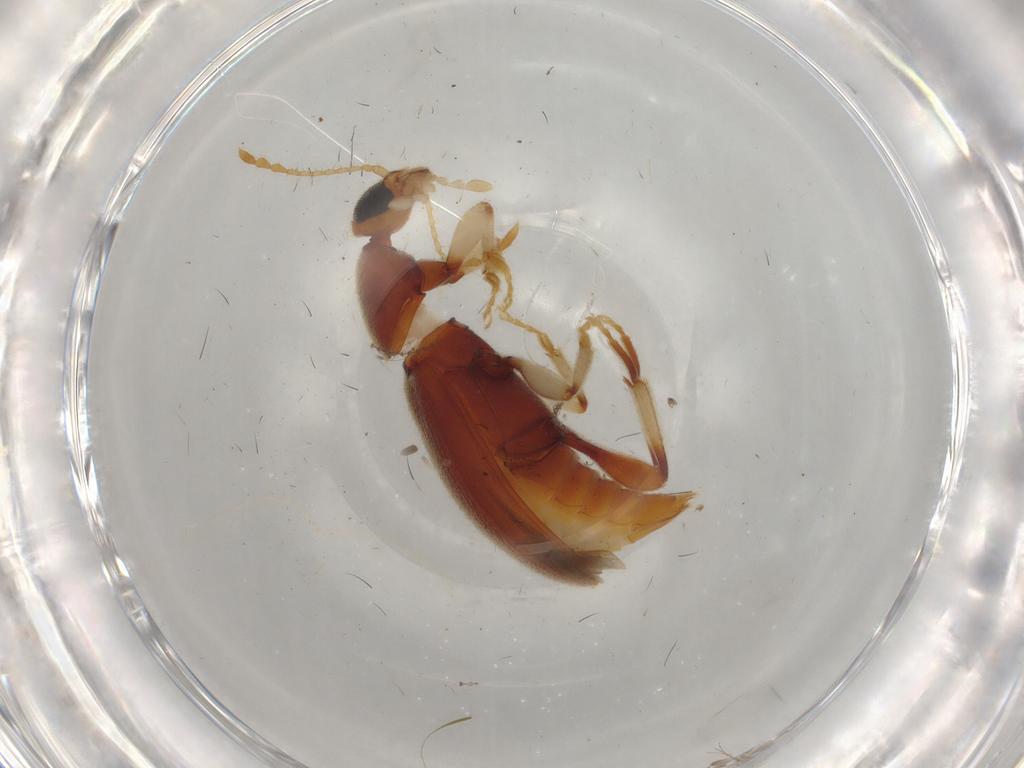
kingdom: Animalia
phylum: Arthropoda
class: Insecta
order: Coleoptera
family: Anthicidae
